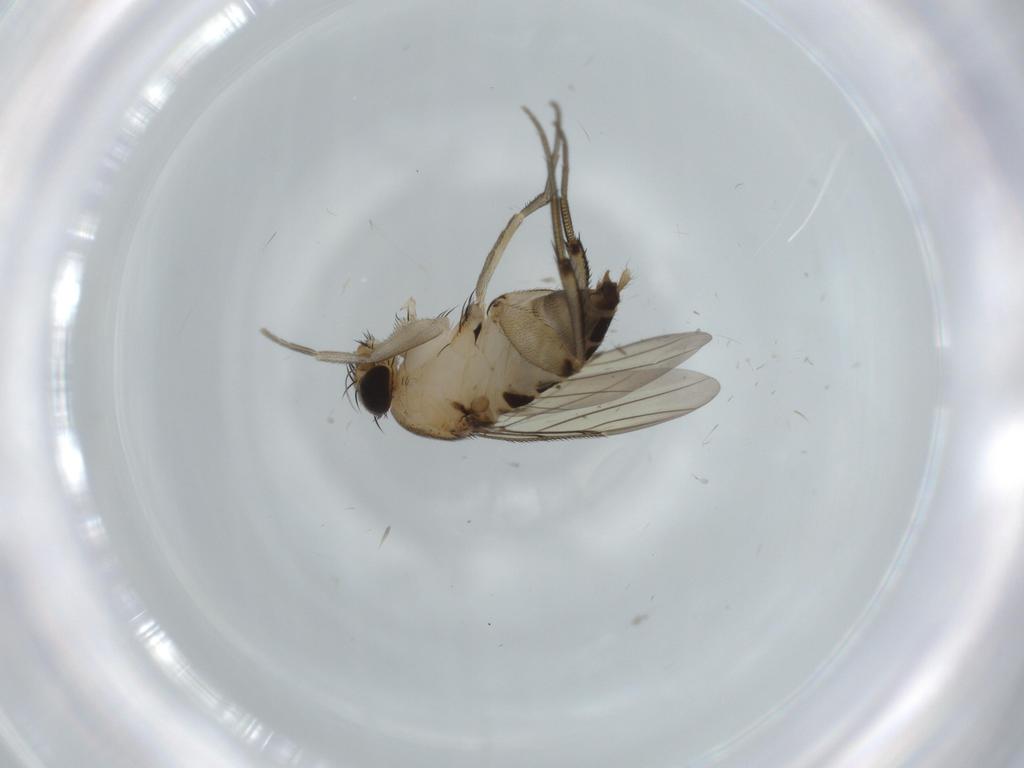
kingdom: Animalia
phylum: Arthropoda
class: Insecta
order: Diptera
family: Phoridae
